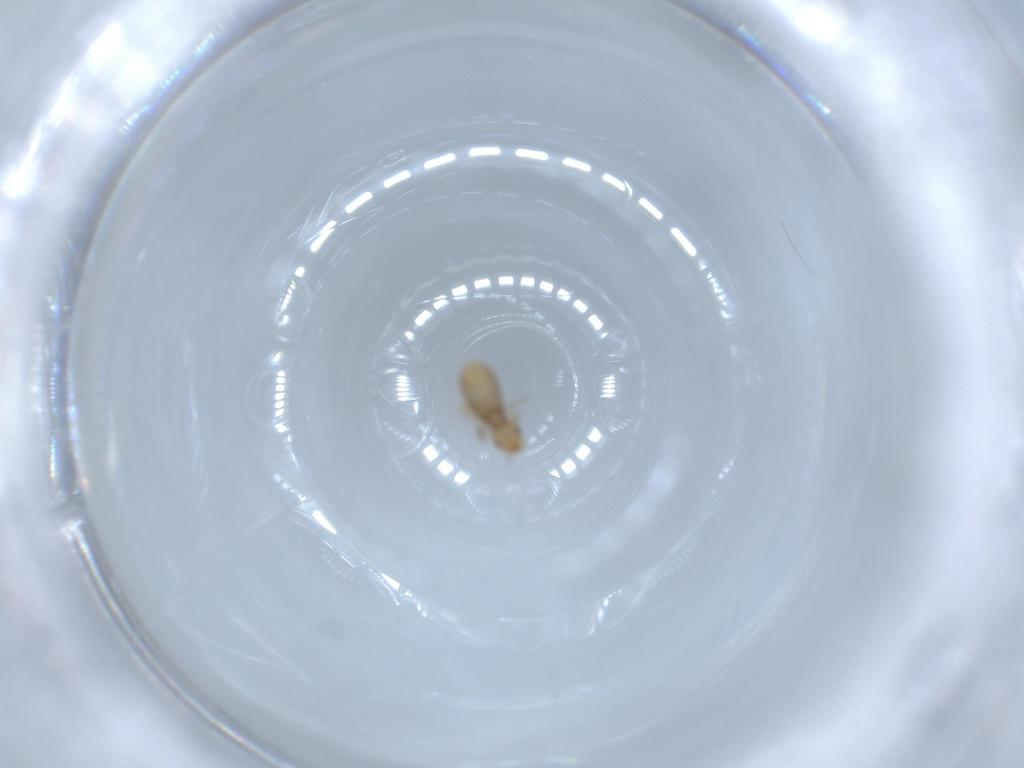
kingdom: Animalia
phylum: Arthropoda
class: Insecta
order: Psocodea
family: Liposcelididae
